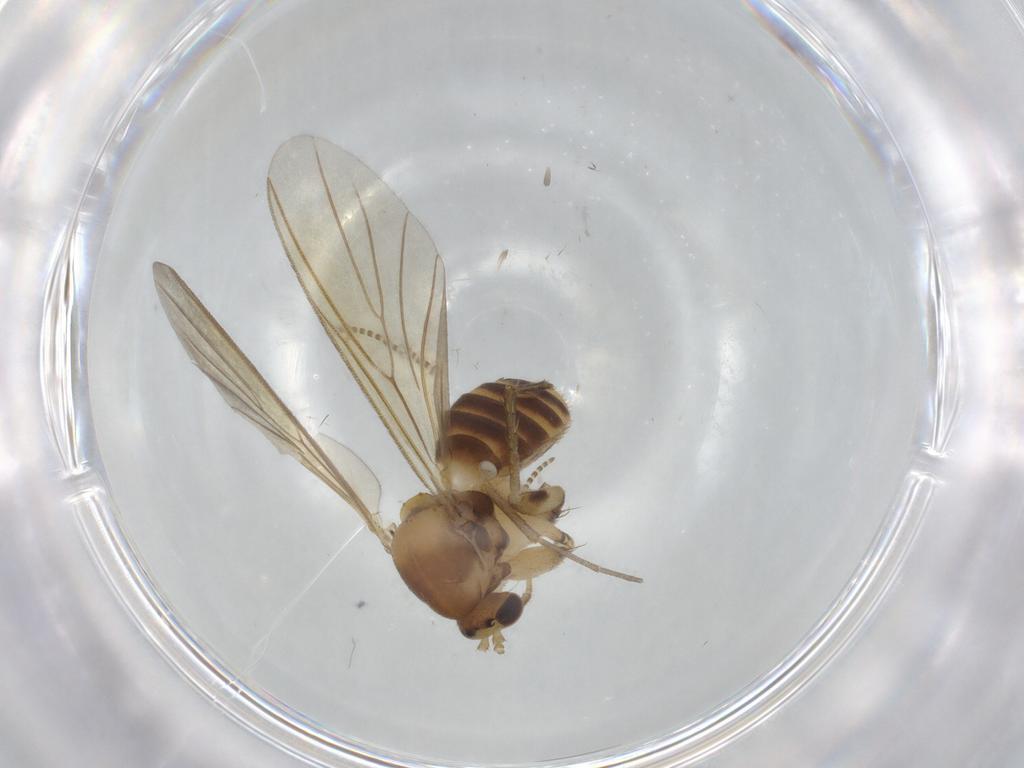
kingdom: Animalia
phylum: Arthropoda
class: Insecta
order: Diptera
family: Mycetophilidae
